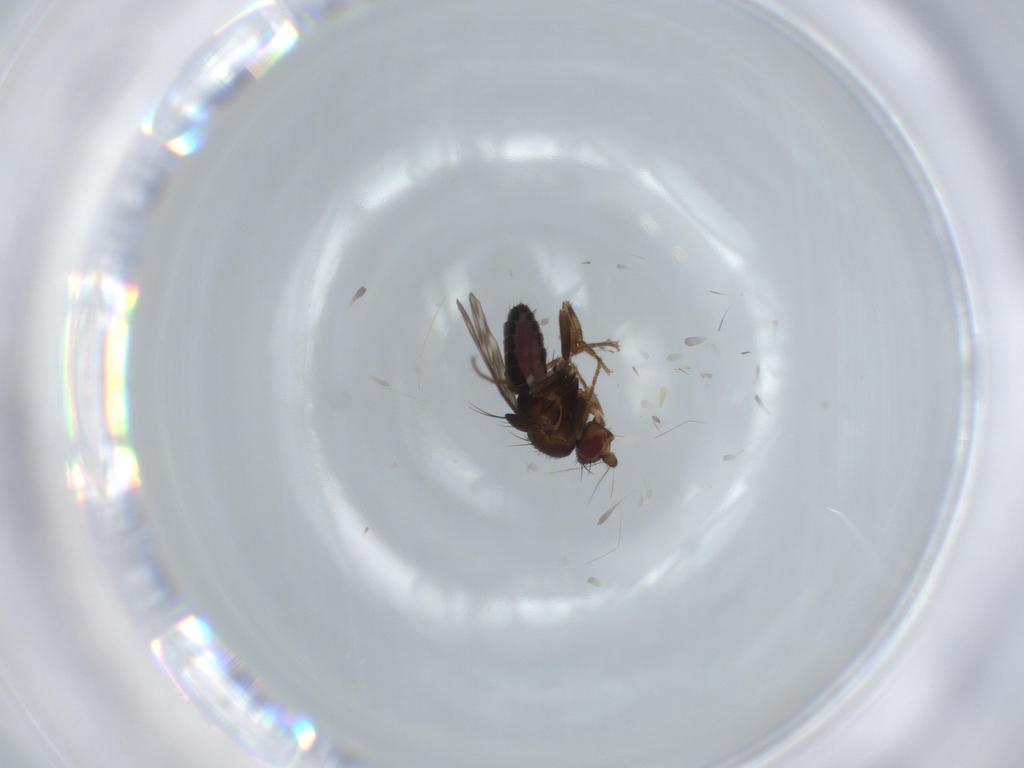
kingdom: Animalia
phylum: Arthropoda
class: Insecta
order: Diptera
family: Sphaeroceridae
